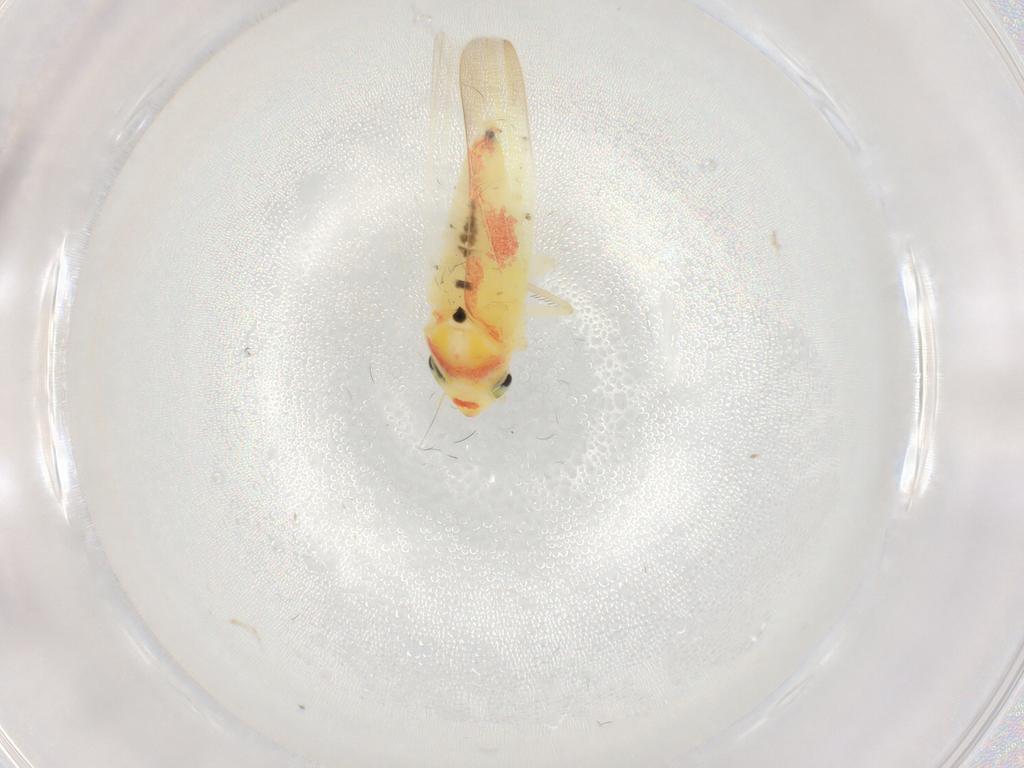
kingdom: Animalia
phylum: Arthropoda
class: Insecta
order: Hemiptera
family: Cicadellidae
